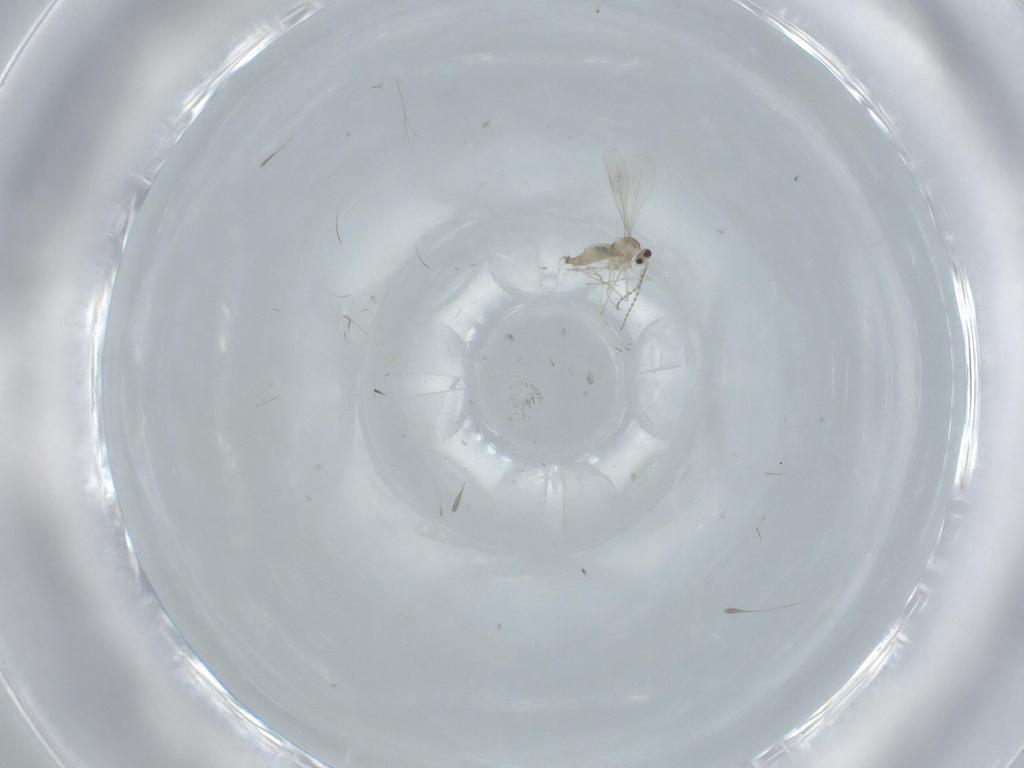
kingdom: Animalia
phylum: Arthropoda
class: Insecta
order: Diptera
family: Cecidomyiidae
